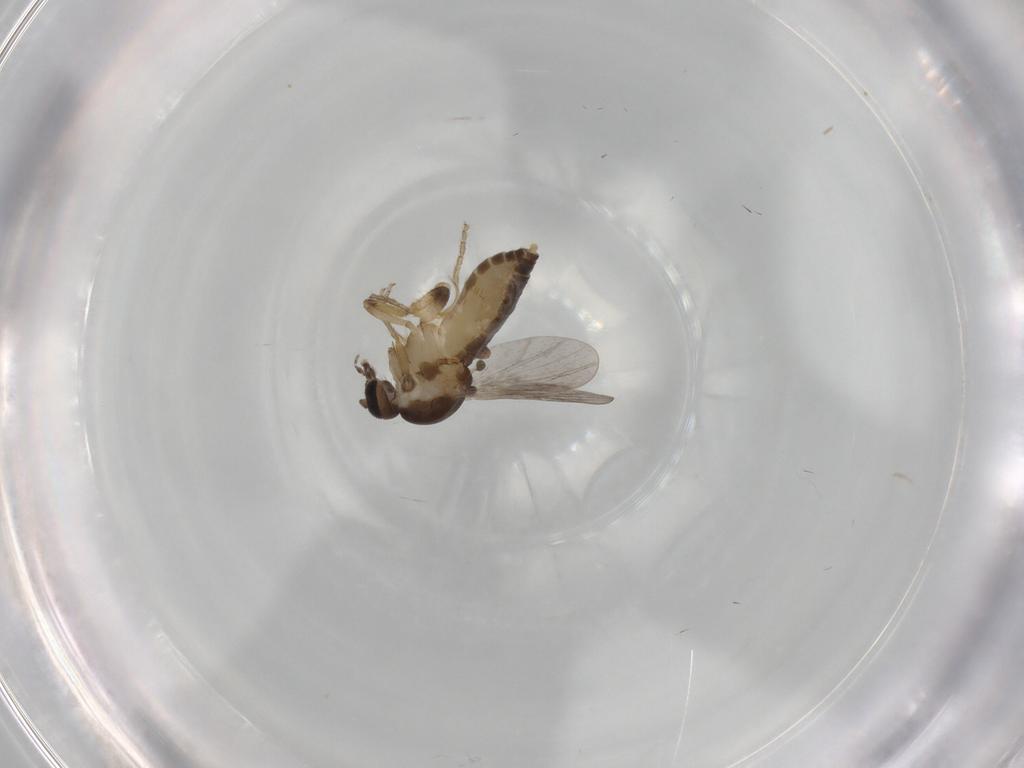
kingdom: Animalia
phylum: Arthropoda
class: Insecta
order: Diptera
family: Ceratopogonidae
